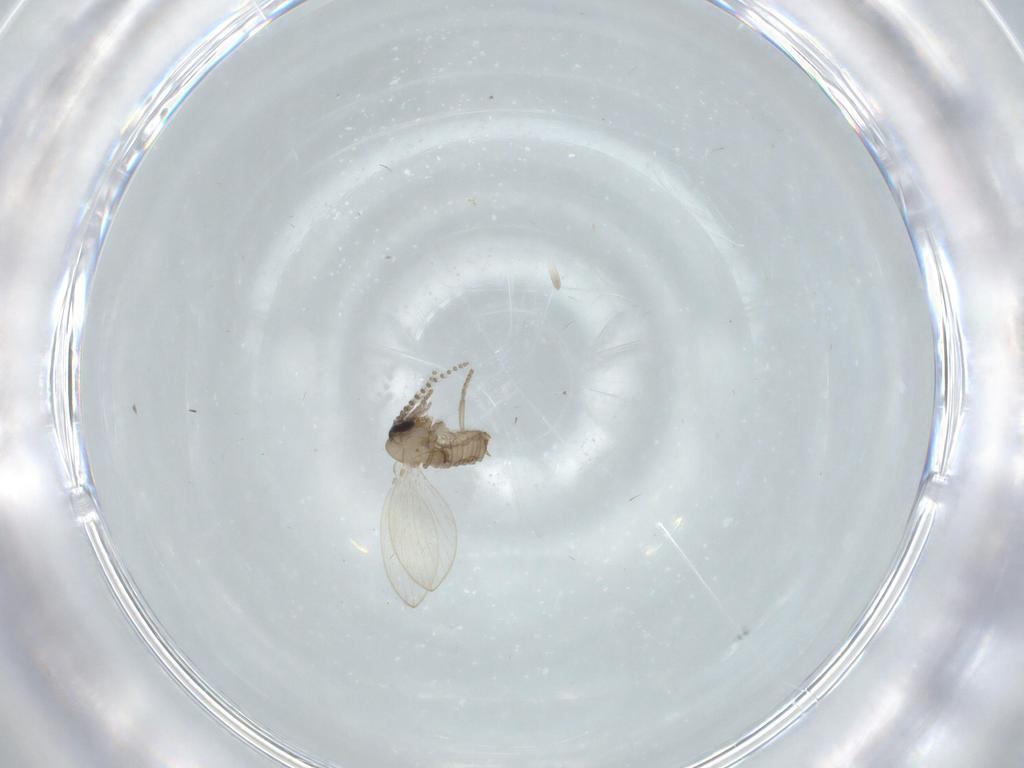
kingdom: Animalia
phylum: Arthropoda
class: Insecta
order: Diptera
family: Psychodidae
